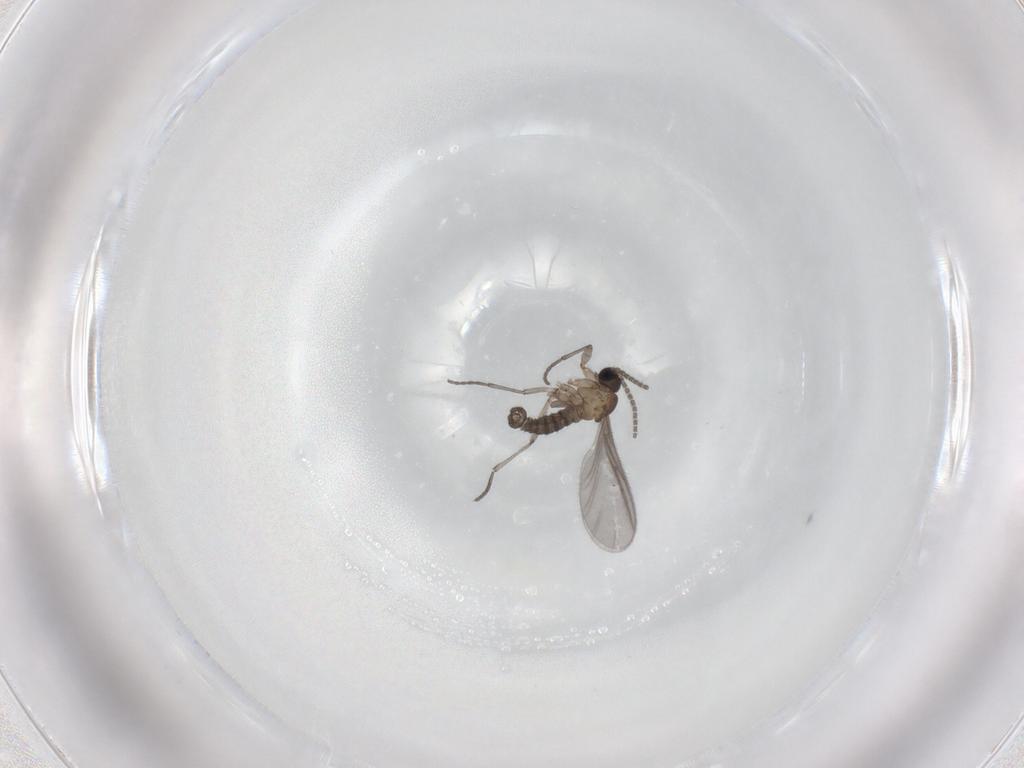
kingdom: Animalia
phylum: Arthropoda
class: Insecta
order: Diptera
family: Sciaridae
